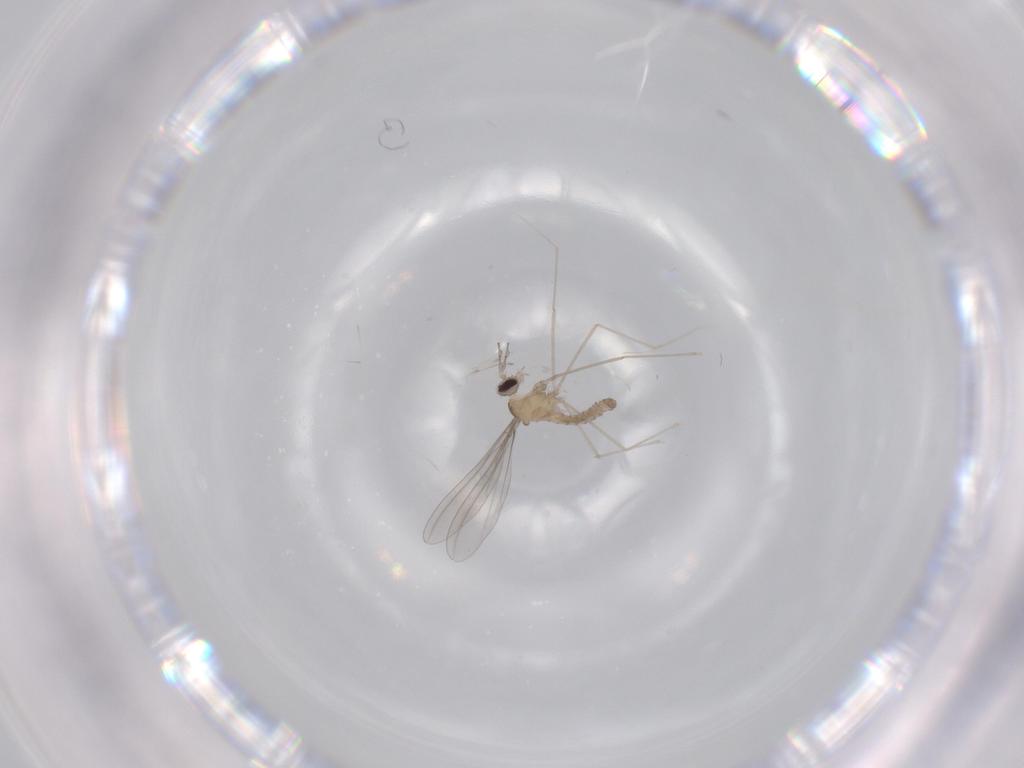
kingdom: Animalia
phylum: Arthropoda
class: Insecta
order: Diptera
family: Cecidomyiidae
